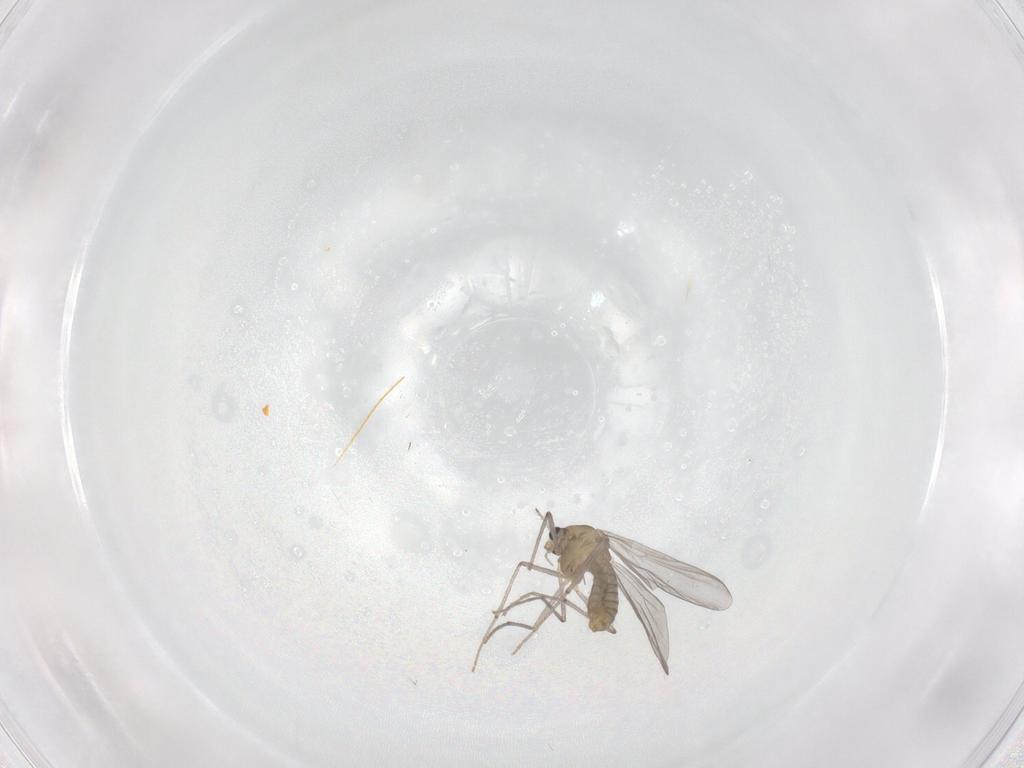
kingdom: Animalia
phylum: Arthropoda
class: Insecta
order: Diptera
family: Chironomidae
